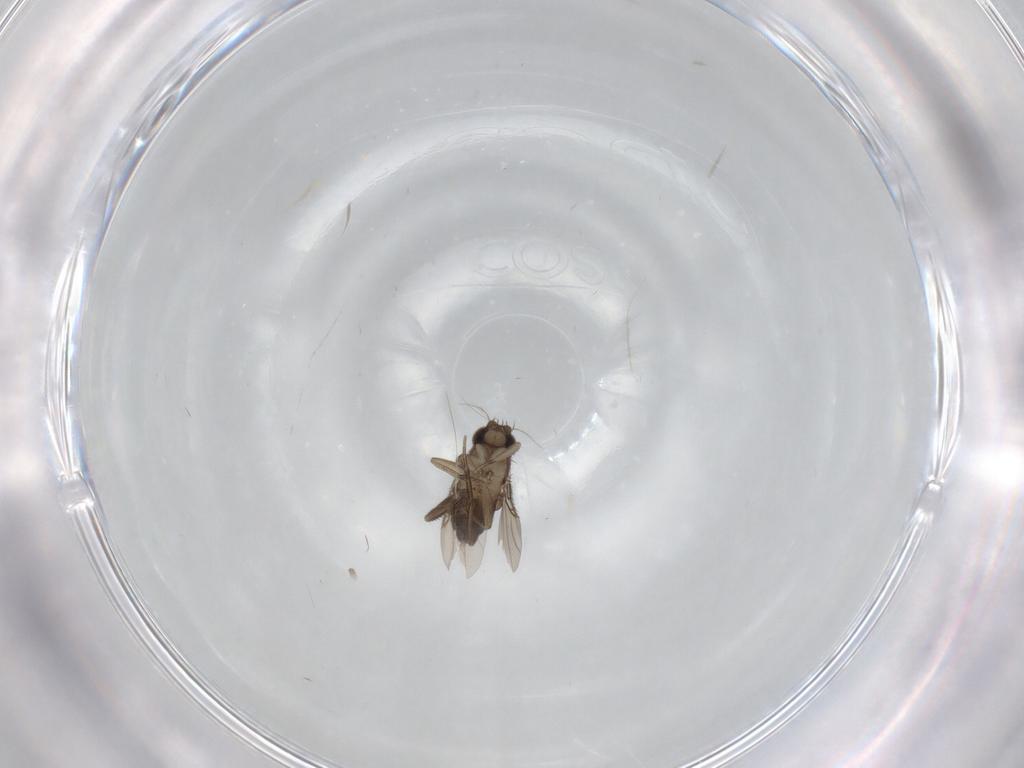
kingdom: Animalia
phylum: Arthropoda
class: Insecta
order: Diptera
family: Phoridae
